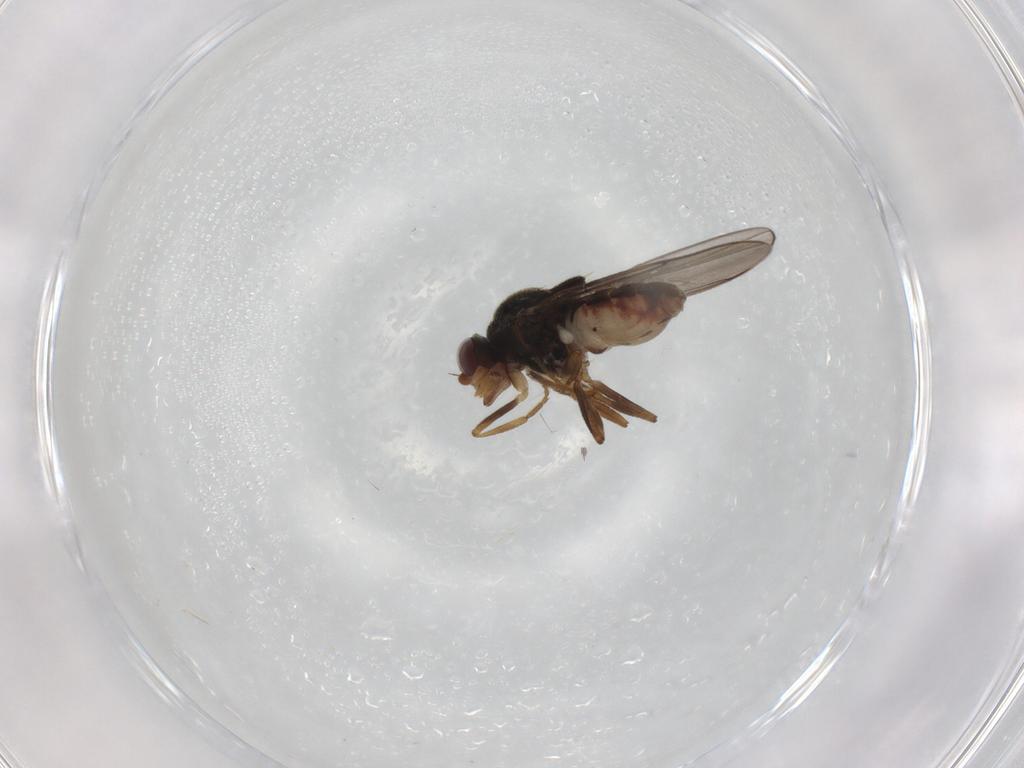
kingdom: Animalia
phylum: Arthropoda
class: Insecta
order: Diptera
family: Chloropidae
